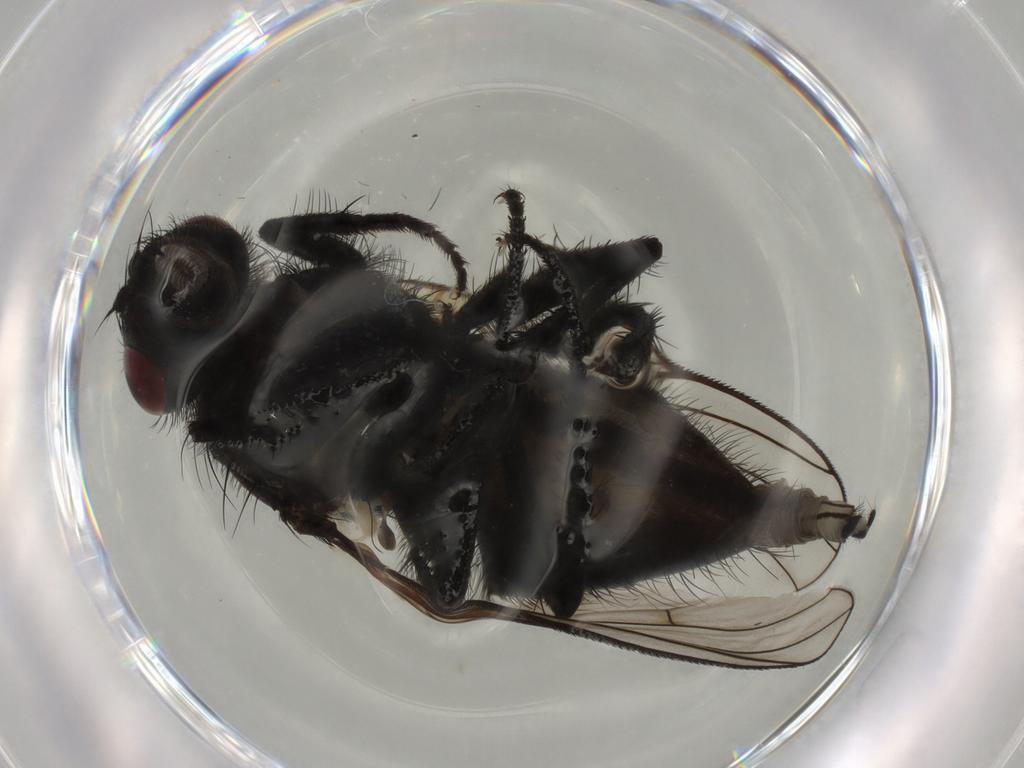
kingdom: Animalia
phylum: Arthropoda
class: Insecta
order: Diptera
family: Muscidae
